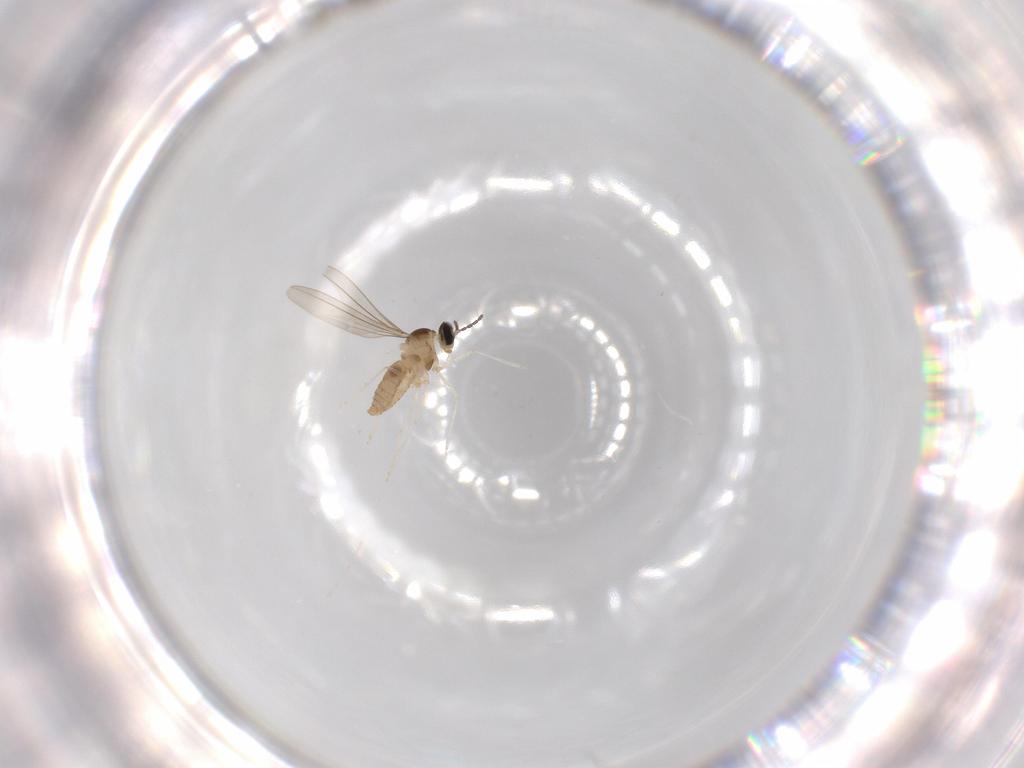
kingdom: Animalia
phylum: Arthropoda
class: Insecta
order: Diptera
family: Cecidomyiidae
